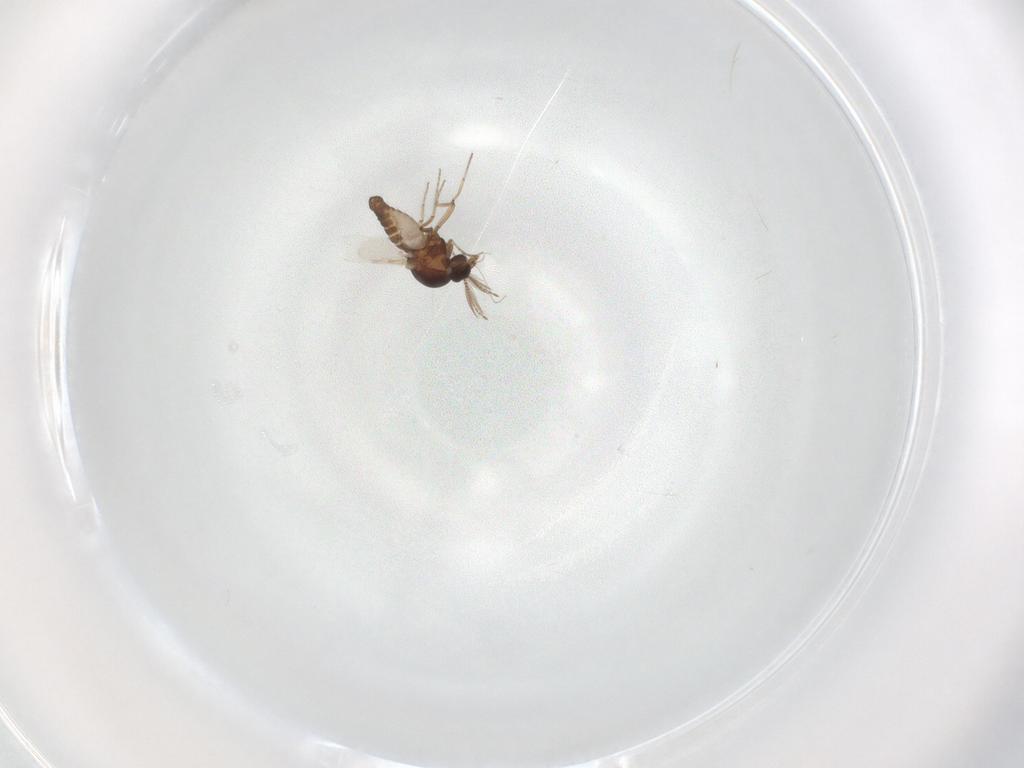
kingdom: Animalia
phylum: Arthropoda
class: Insecta
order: Diptera
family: Ceratopogonidae
